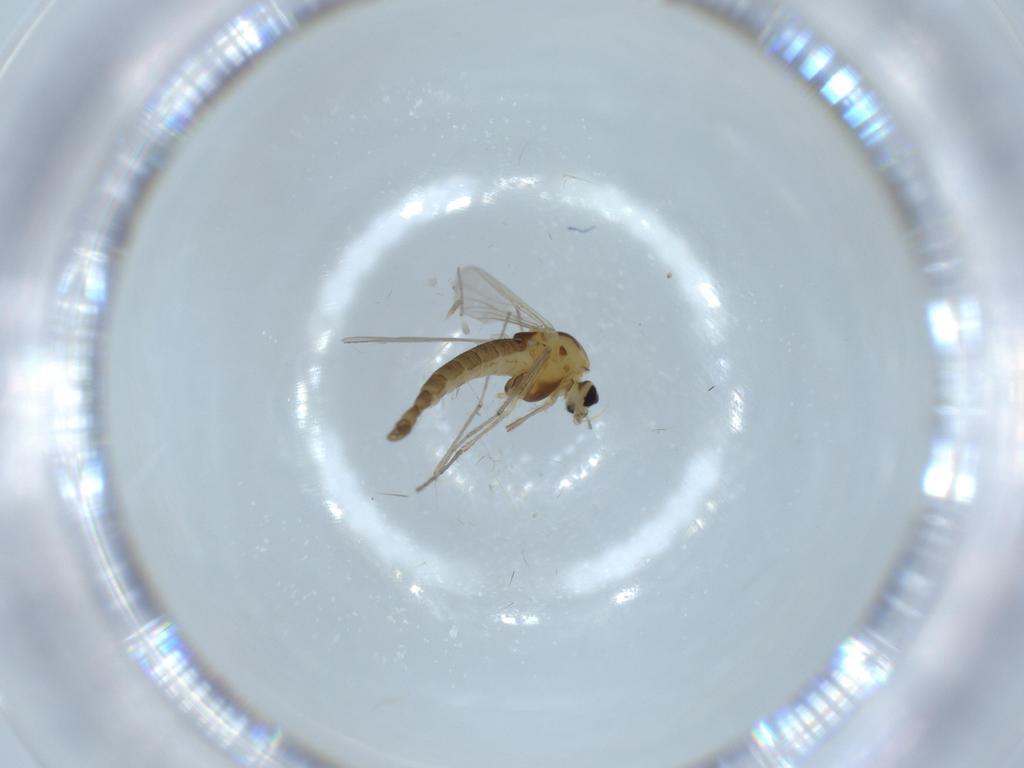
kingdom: Animalia
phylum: Arthropoda
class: Insecta
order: Diptera
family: Chironomidae
